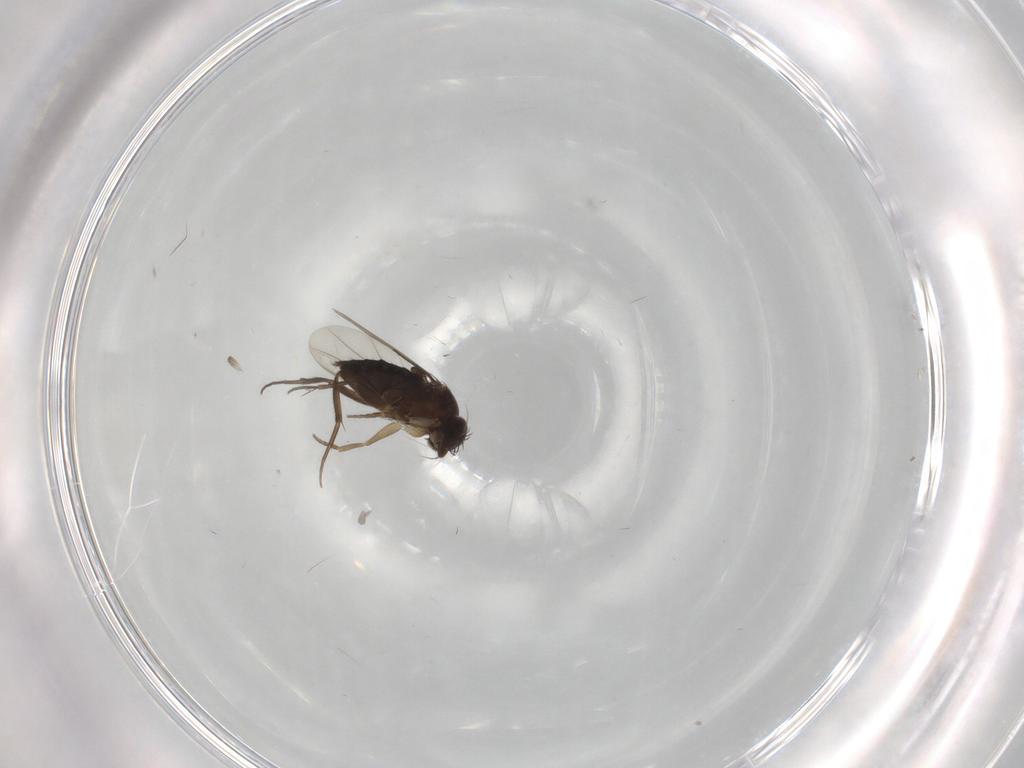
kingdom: Animalia
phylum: Arthropoda
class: Insecta
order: Diptera
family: Phoridae
